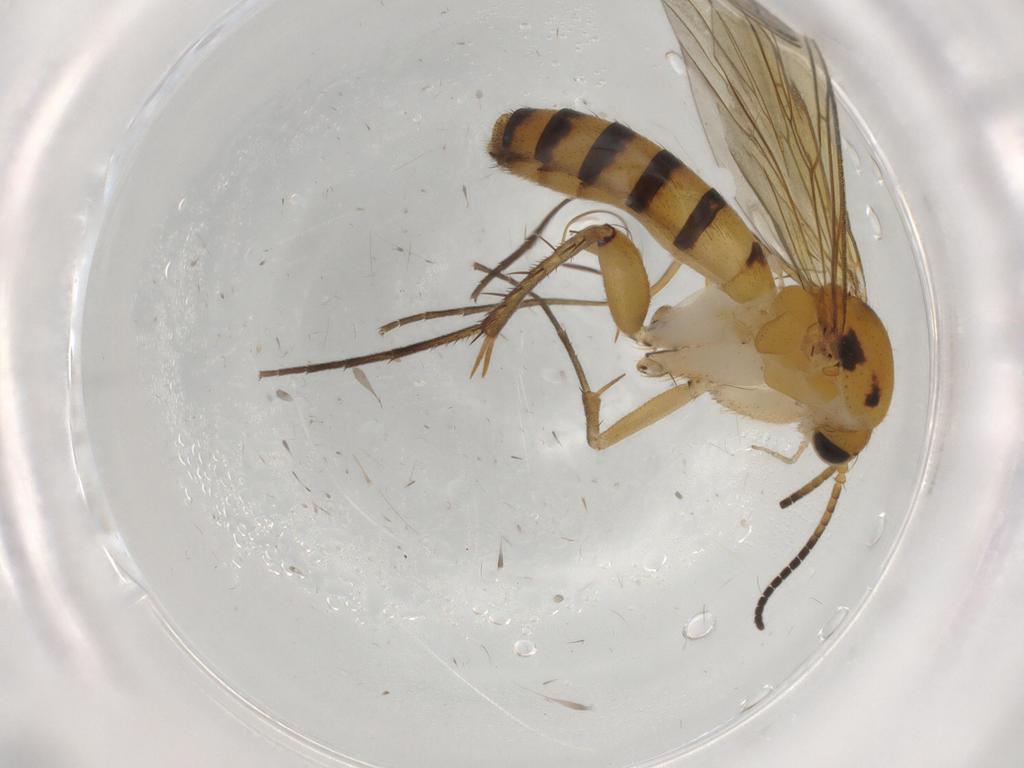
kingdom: Animalia
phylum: Arthropoda
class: Insecta
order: Diptera
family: Mycetophilidae
